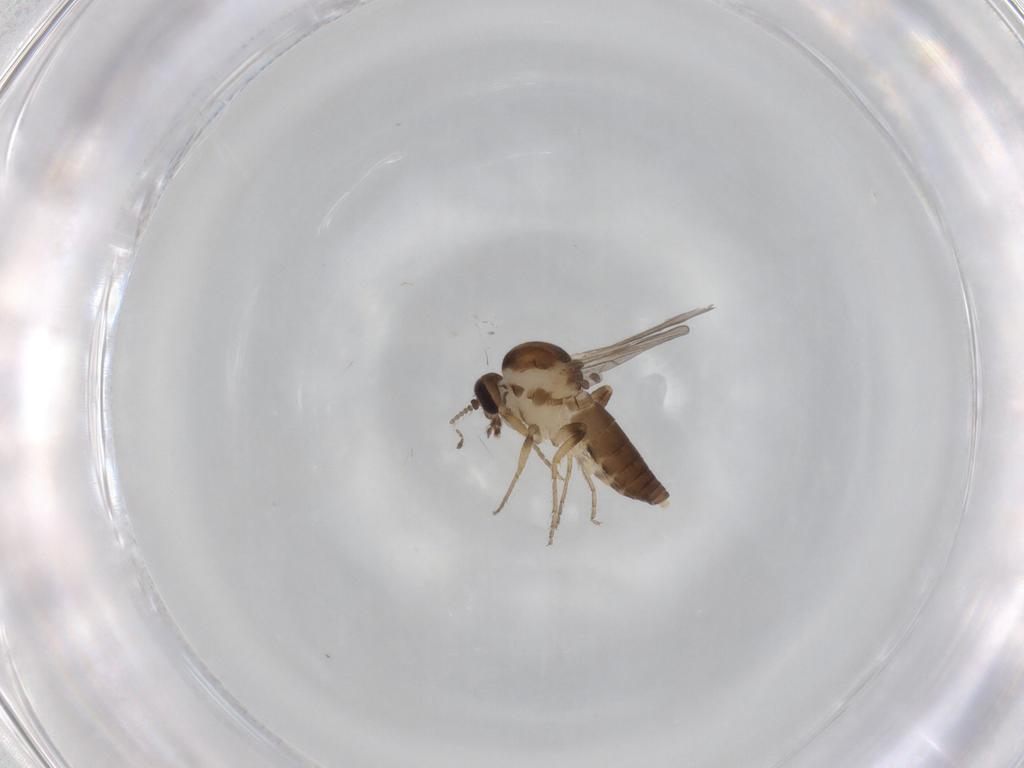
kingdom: Animalia
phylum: Arthropoda
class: Insecta
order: Diptera
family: Ceratopogonidae
